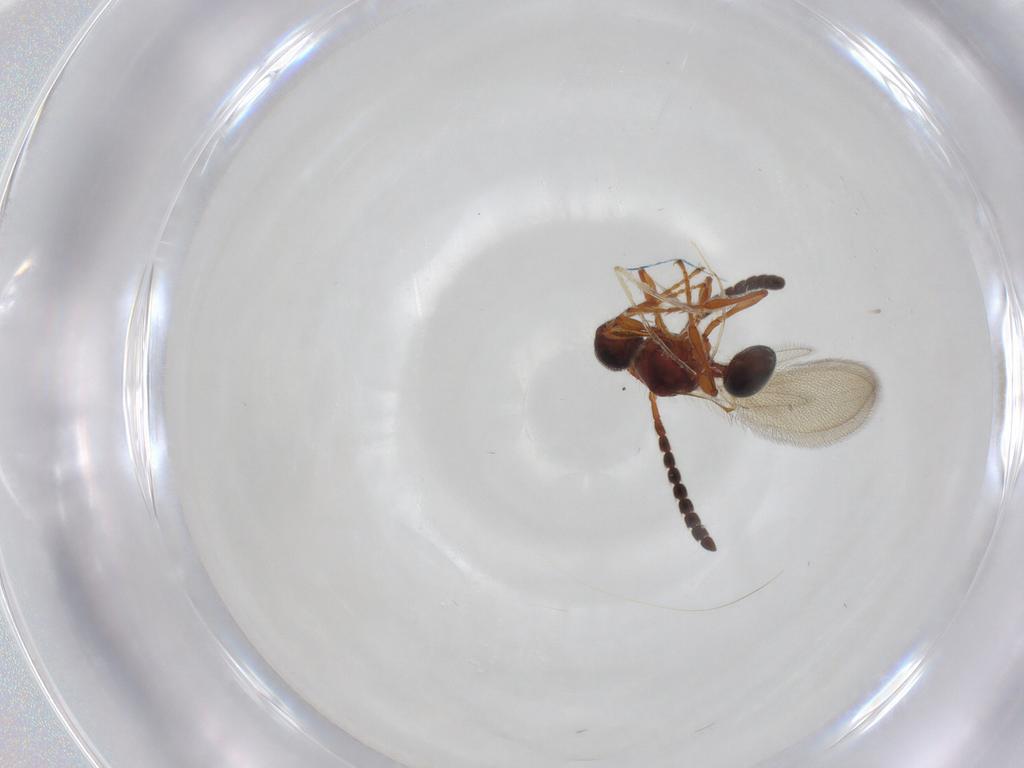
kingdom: Animalia
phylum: Arthropoda
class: Insecta
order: Hymenoptera
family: Diapriidae
